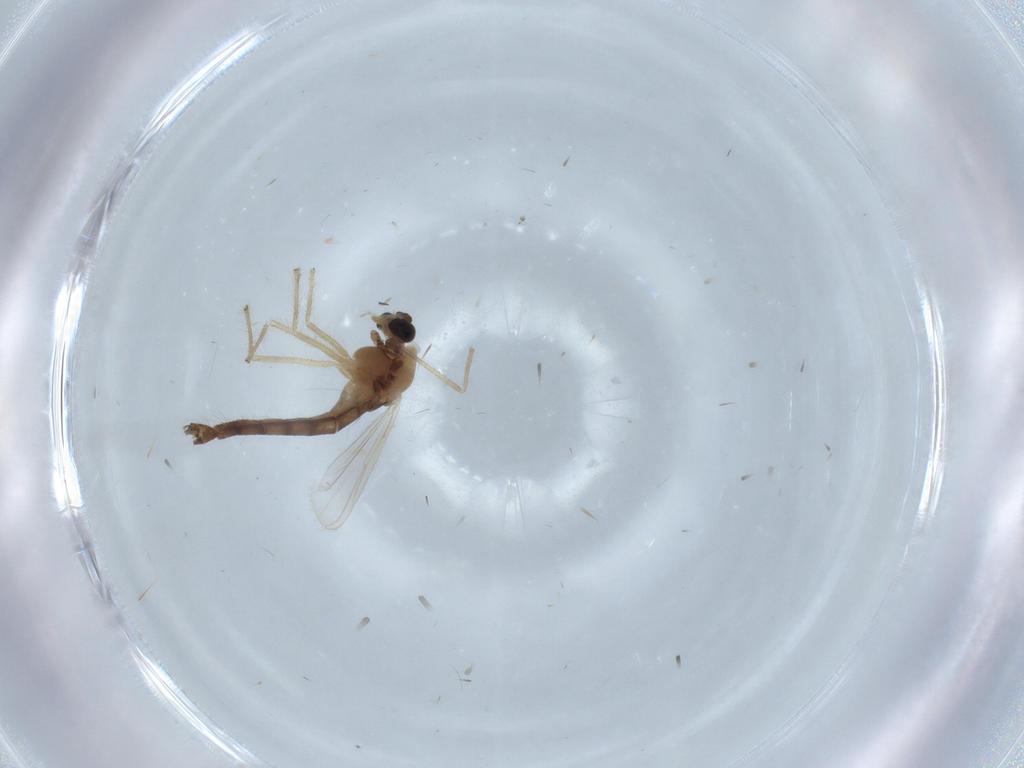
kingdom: Animalia
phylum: Arthropoda
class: Insecta
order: Diptera
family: Chironomidae
